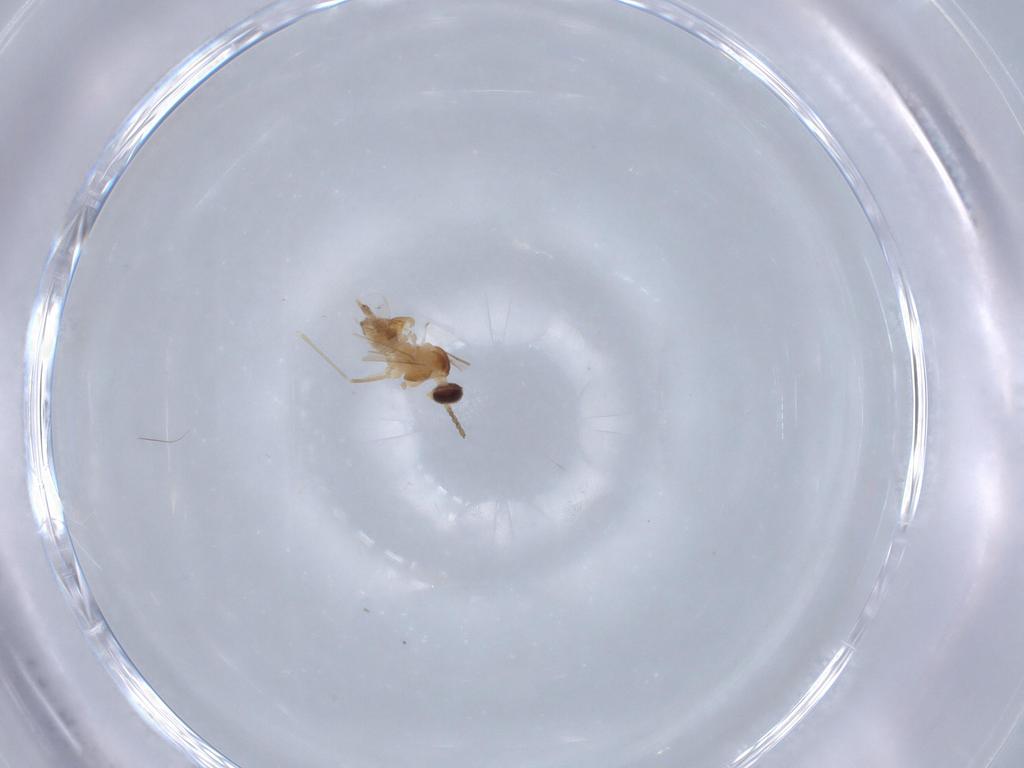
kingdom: Animalia
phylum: Arthropoda
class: Insecta
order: Diptera
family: Cecidomyiidae
